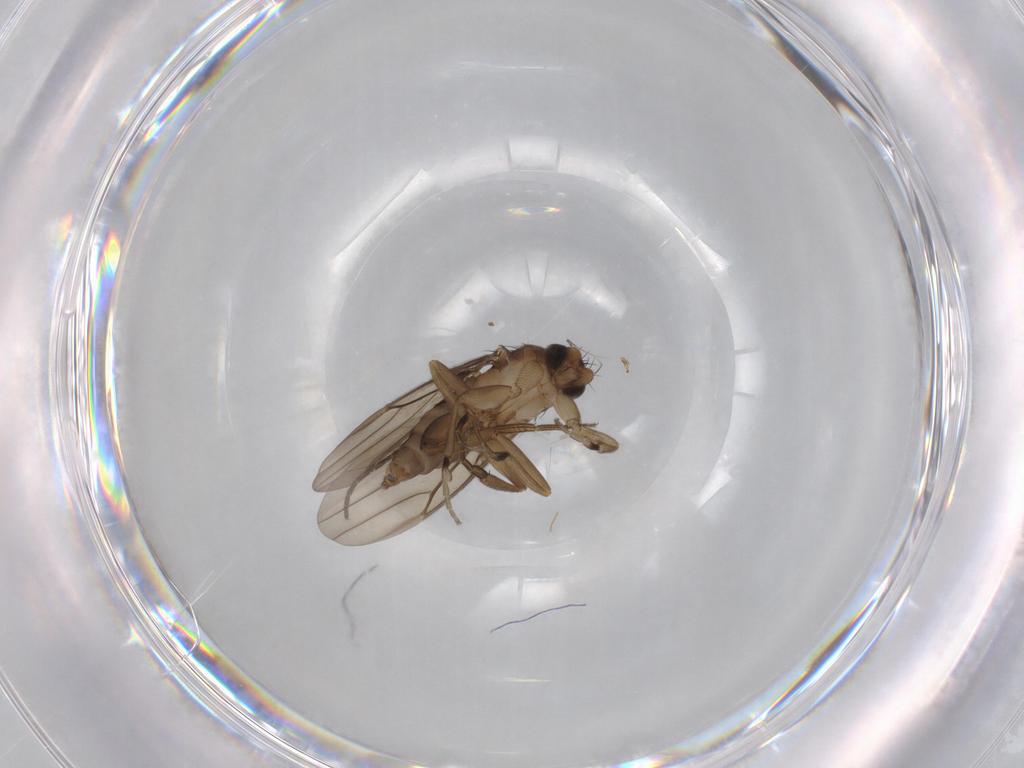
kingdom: Animalia
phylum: Arthropoda
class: Insecta
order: Diptera
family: Phoridae
